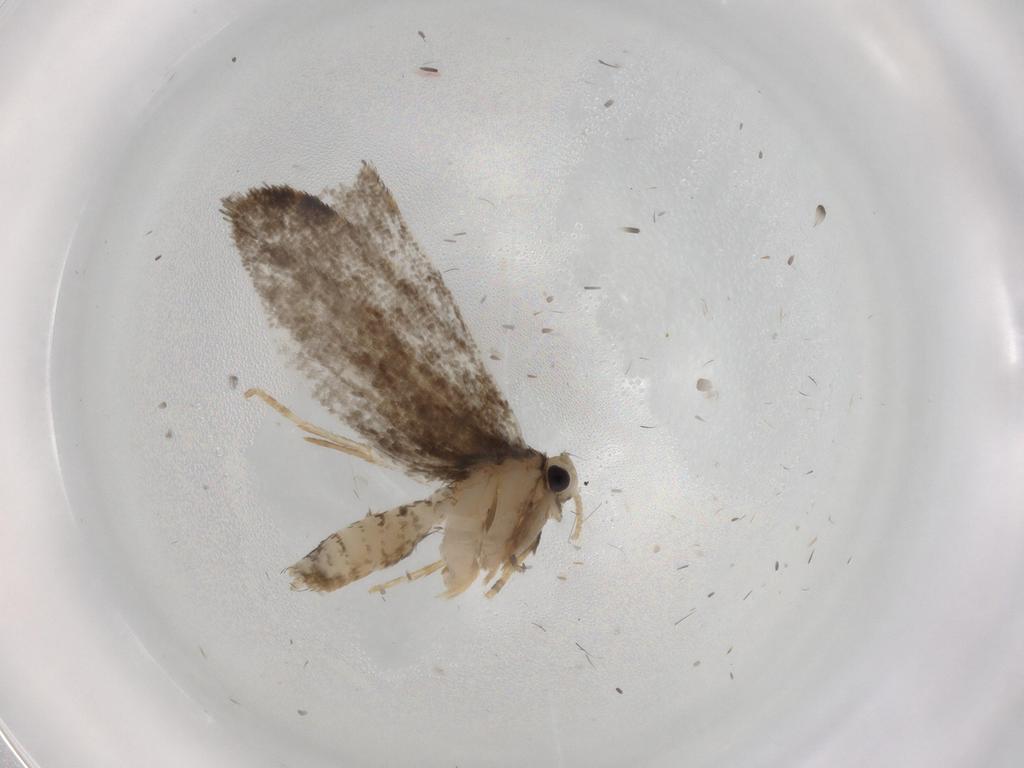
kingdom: Animalia
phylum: Arthropoda
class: Insecta
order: Lepidoptera
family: Psychidae
